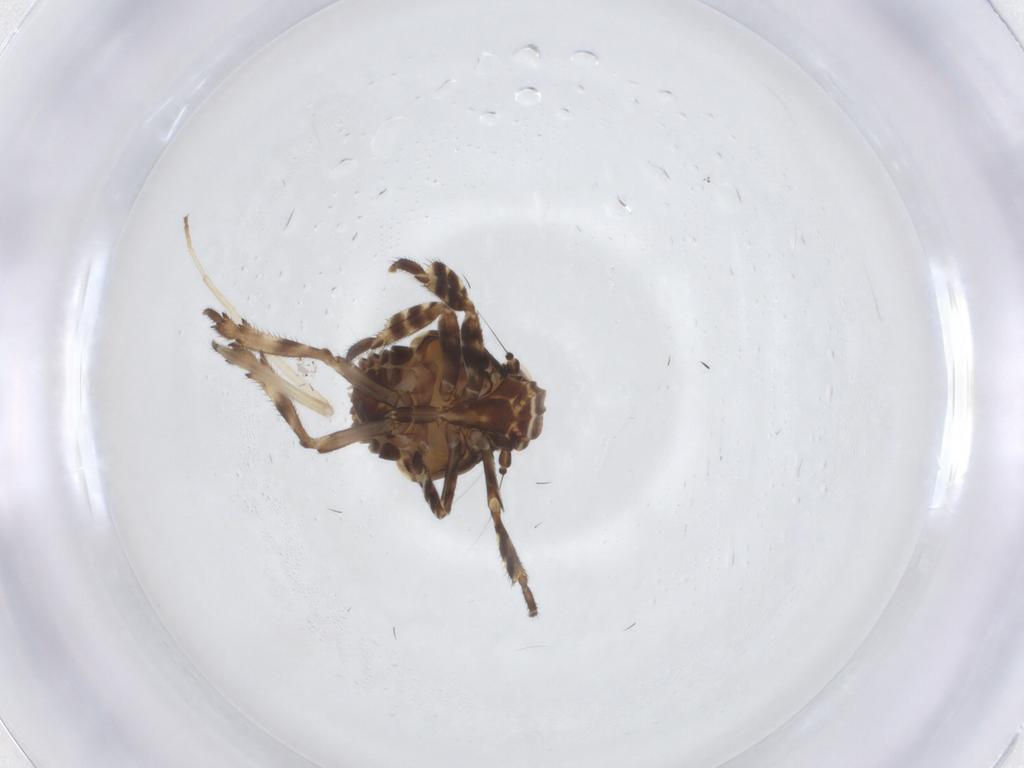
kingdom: Animalia
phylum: Arthropoda
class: Insecta
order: Hemiptera
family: Eurybrachidae
